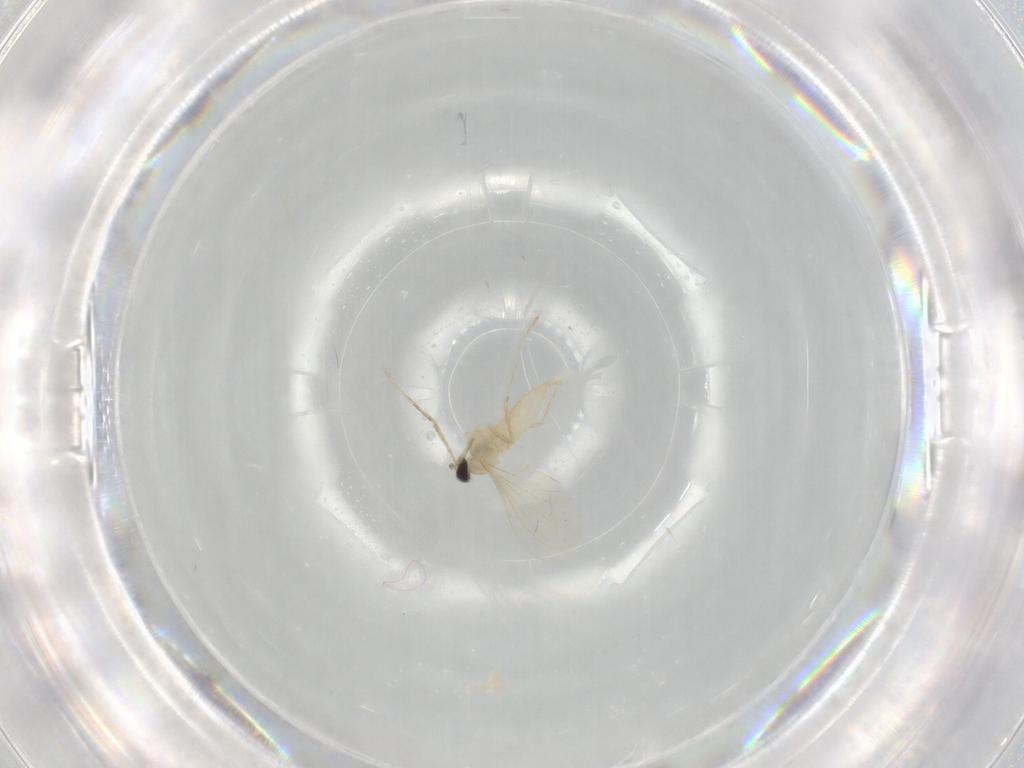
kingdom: Animalia
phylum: Arthropoda
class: Insecta
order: Diptera
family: Cecidomyiidae
